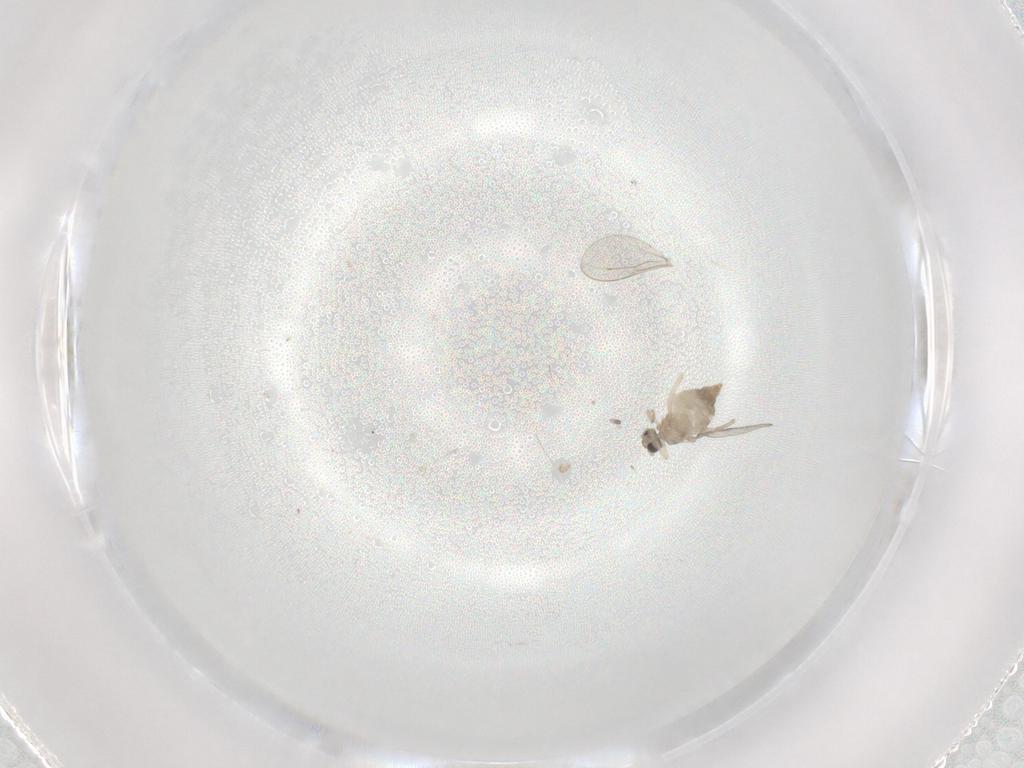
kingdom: Animalia
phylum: Arthropoda
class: Insecta
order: Diptera
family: Cecidomyiidae
